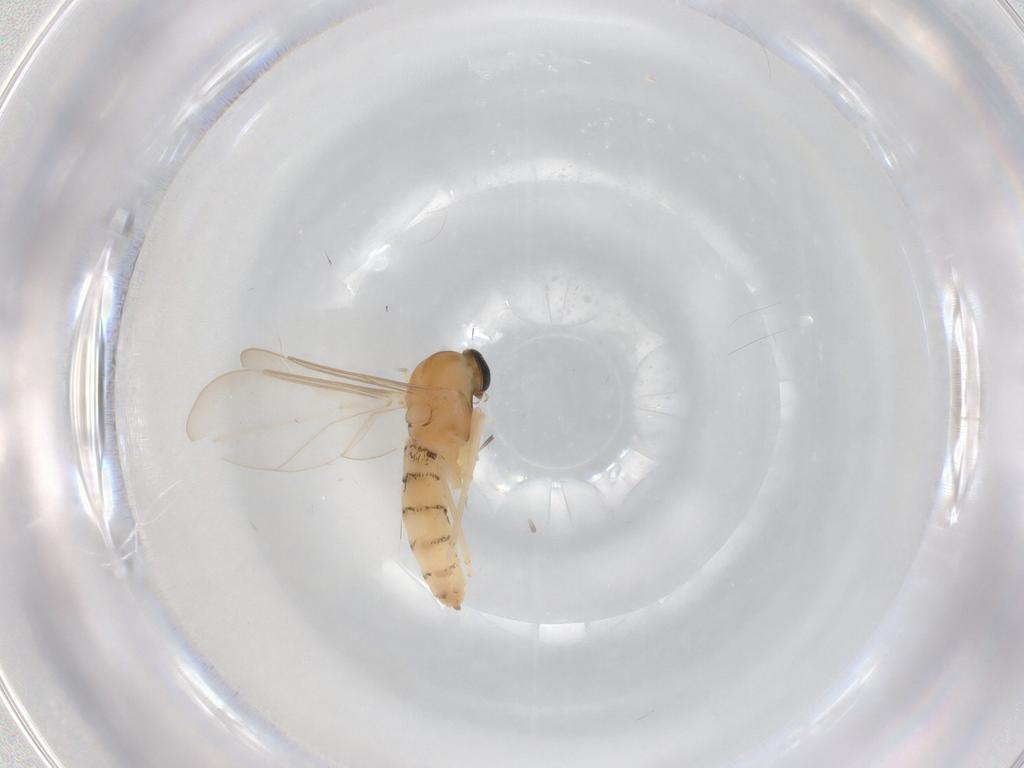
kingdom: Animalia
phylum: Arthropoda
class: Insecta
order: Diptera
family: Cecidomyiidae
